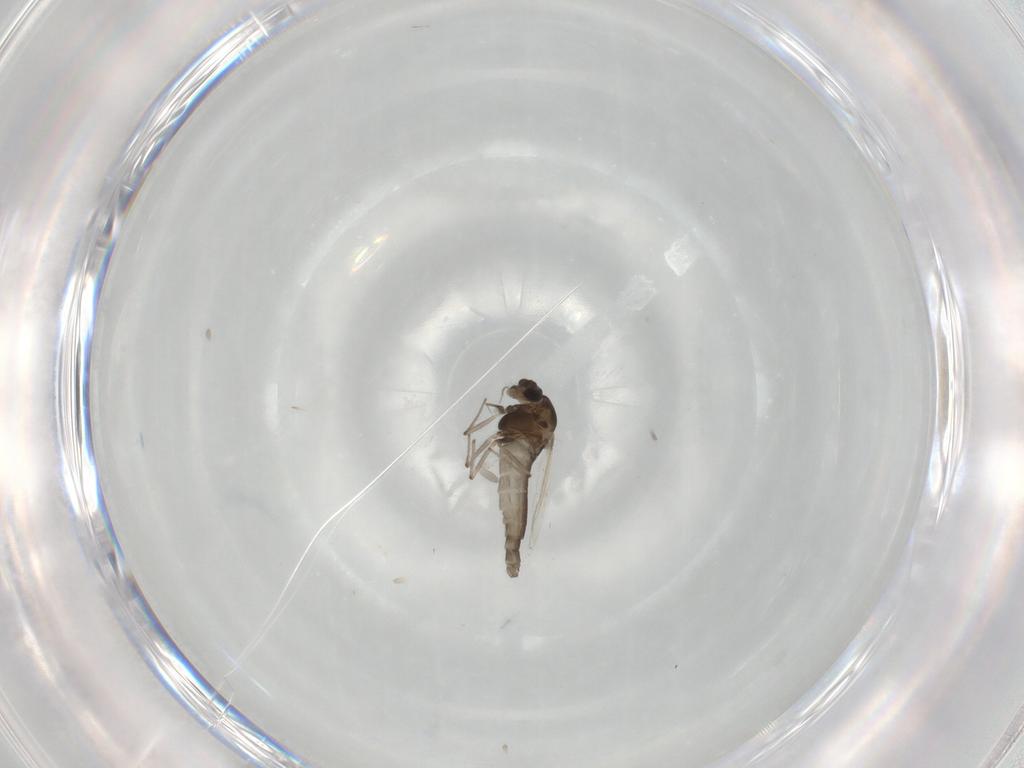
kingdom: Animalia
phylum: Arthropoda
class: Insecta
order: Diptera
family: Chironomidae
